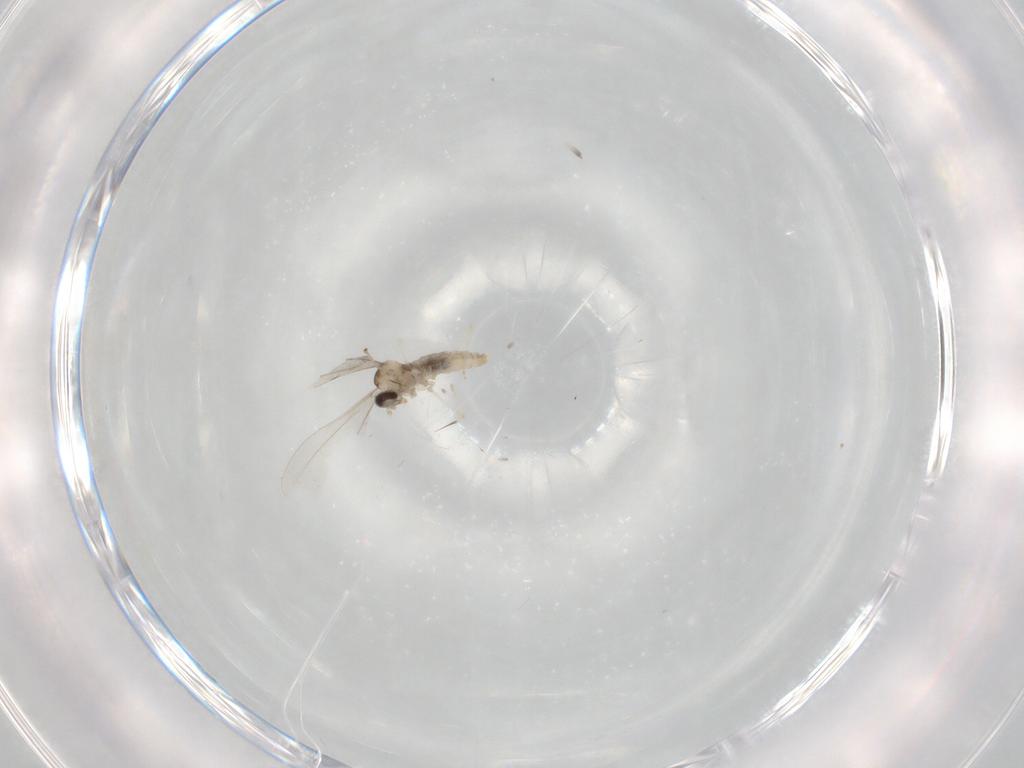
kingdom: Animalia
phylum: Arthropoda
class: Insecta
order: Diptera
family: Cecidomyiidae
